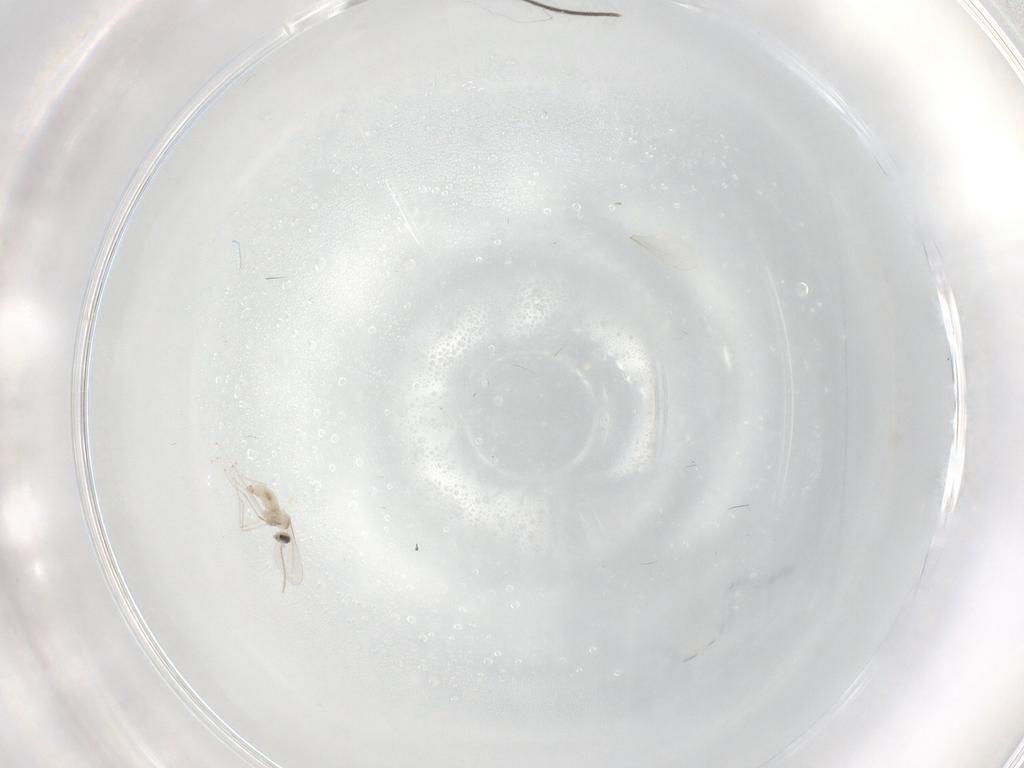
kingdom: Animalia
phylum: Arthropoda
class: Insecta
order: Diptera
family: Sciaridae
